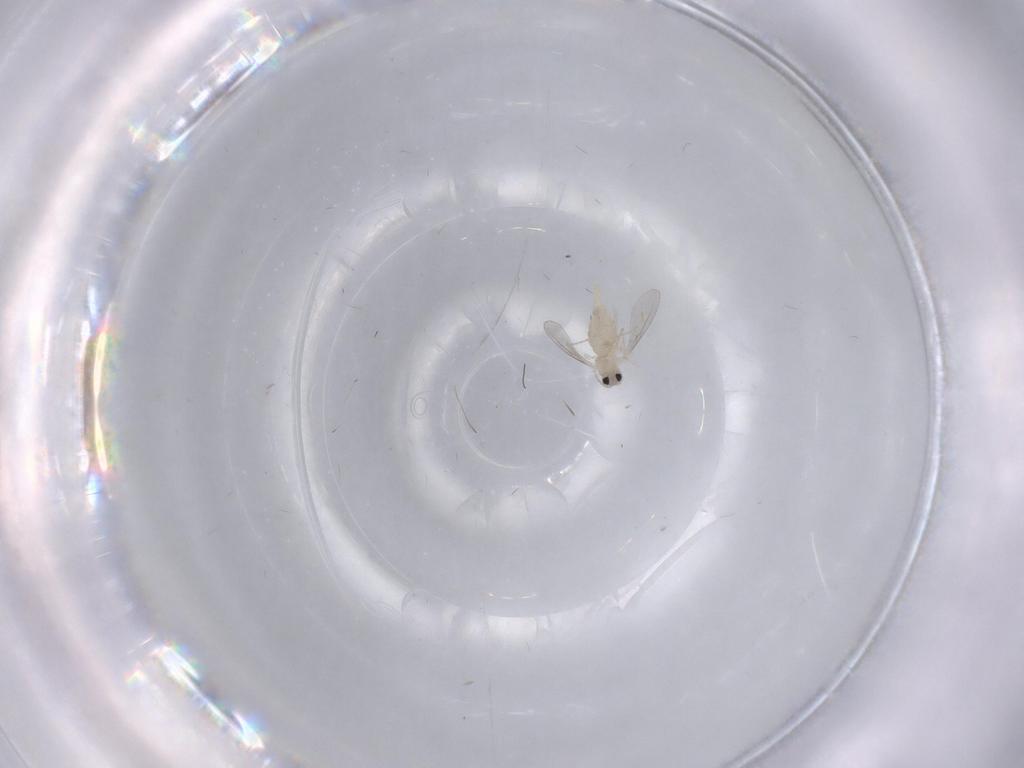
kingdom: Animalia
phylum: Arthropoda
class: Insecta
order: Diptera
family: Cecidomyiidae
